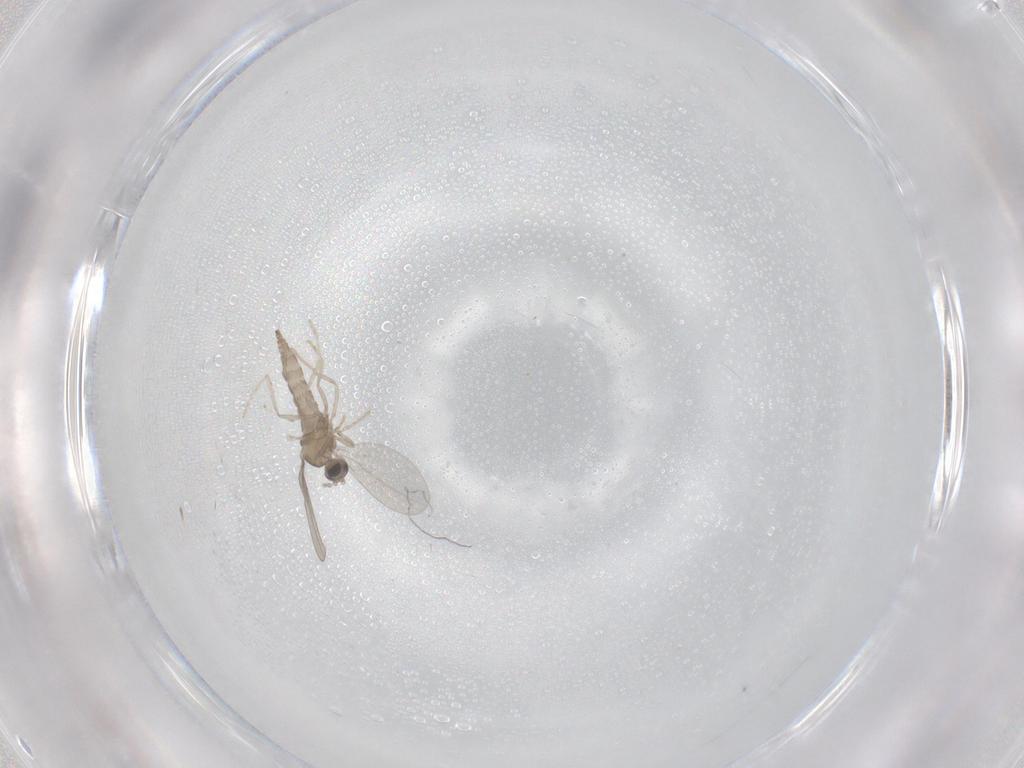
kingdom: Animalia
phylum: Arthropoda
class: Insecta
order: Diptera
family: Cecidomyiidae
